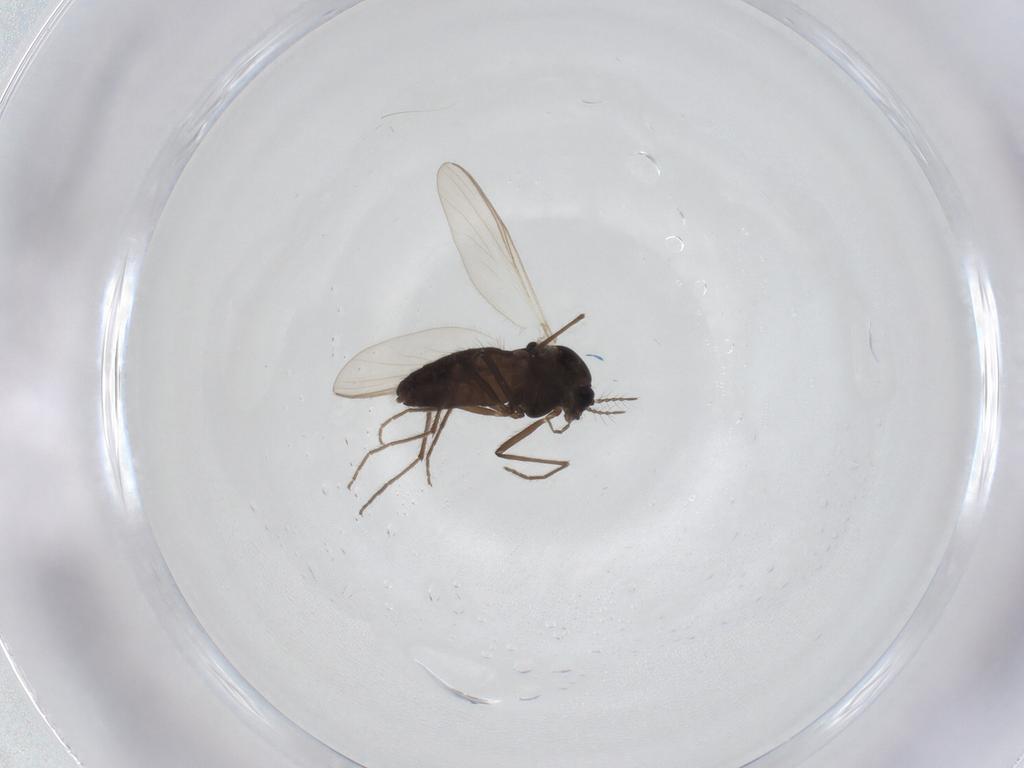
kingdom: Animalia
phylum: Arthropoda
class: Insecta
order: Diptera
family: Chironomidae
